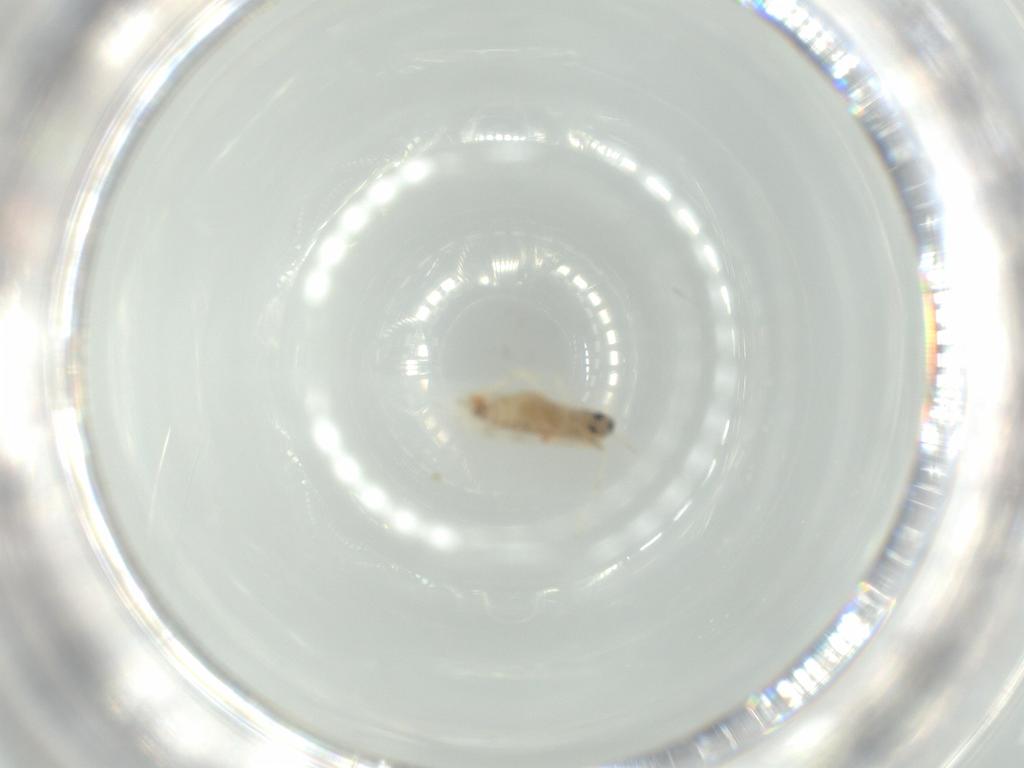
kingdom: Animalia
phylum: Arthropoda
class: Insecta
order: Diptera
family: Cecidomyiidae
